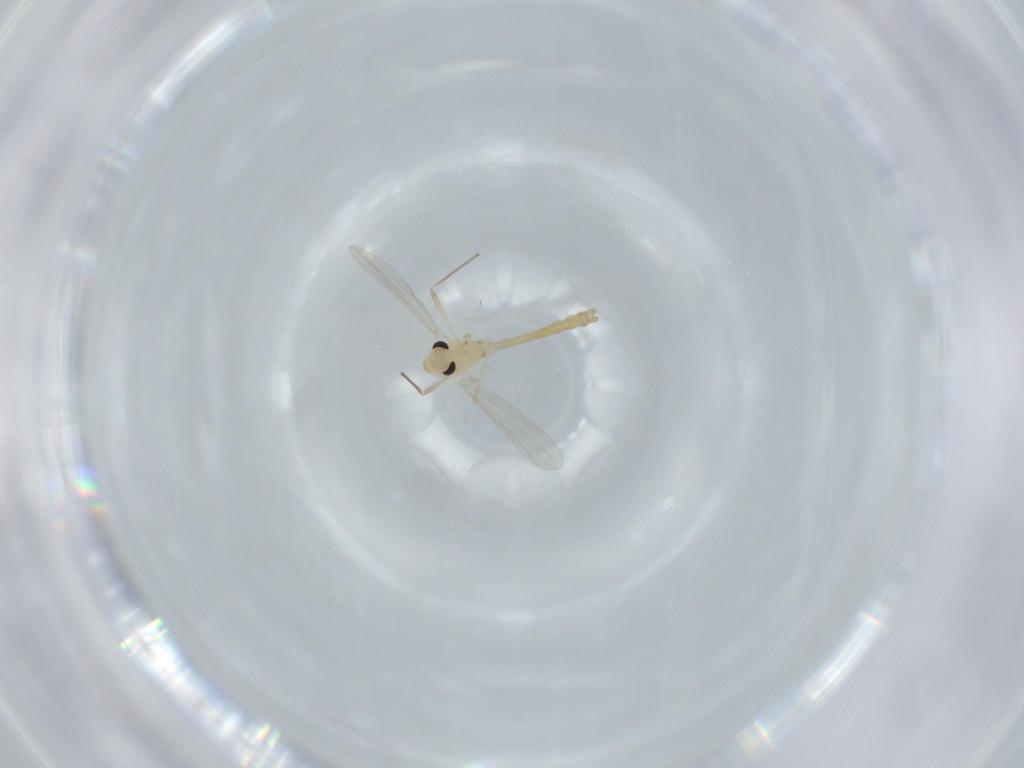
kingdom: Animalia
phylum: Arthropoda
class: Insecta
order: Diptera
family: Chironomidae
